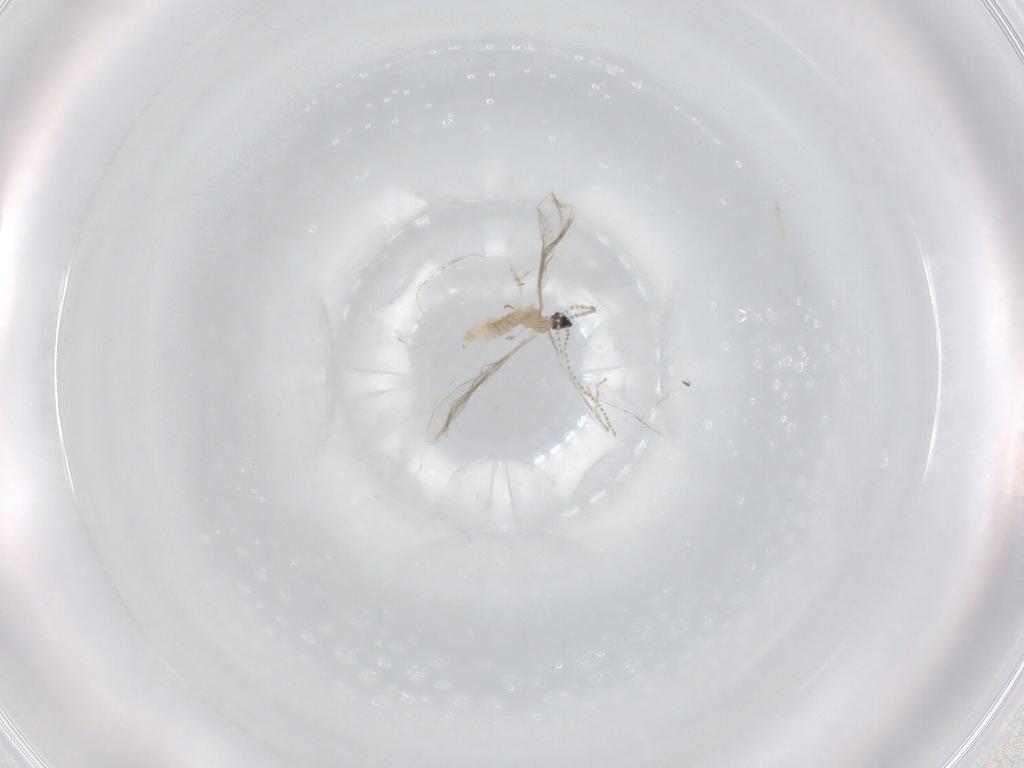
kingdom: Animalia
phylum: Arthropoda
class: Insecta
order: Diptera
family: Cecidomyiidae
